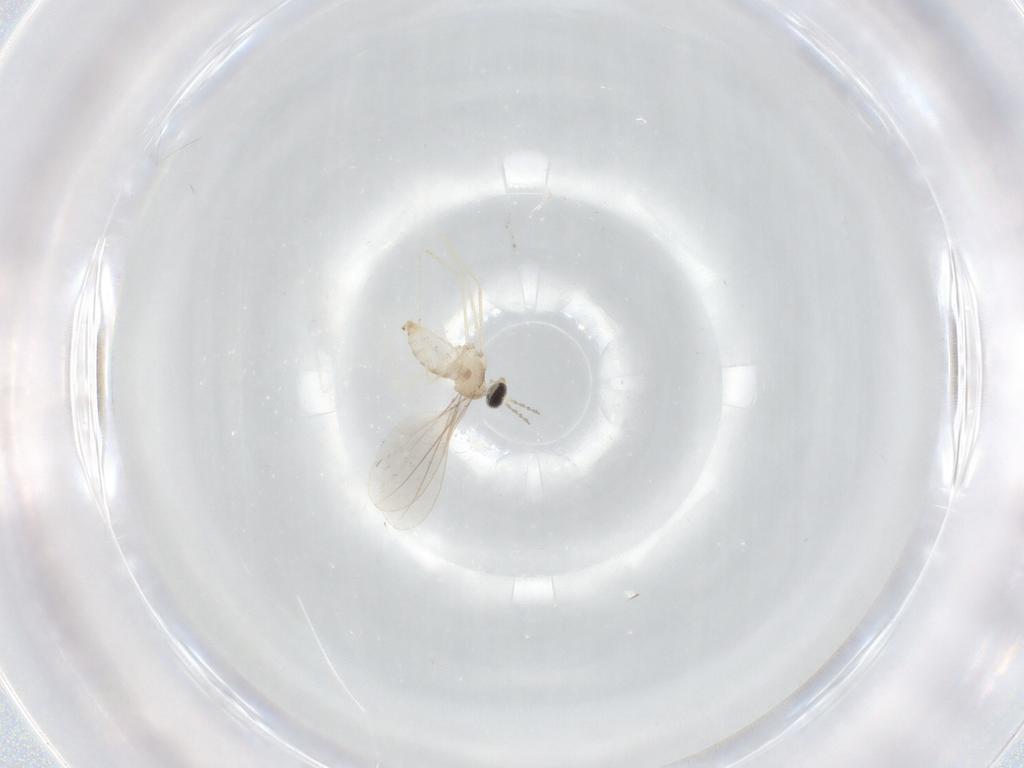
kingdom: Animalia
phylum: Arthropoda
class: Insecta
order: Diptera
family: Cecidomyiidae
